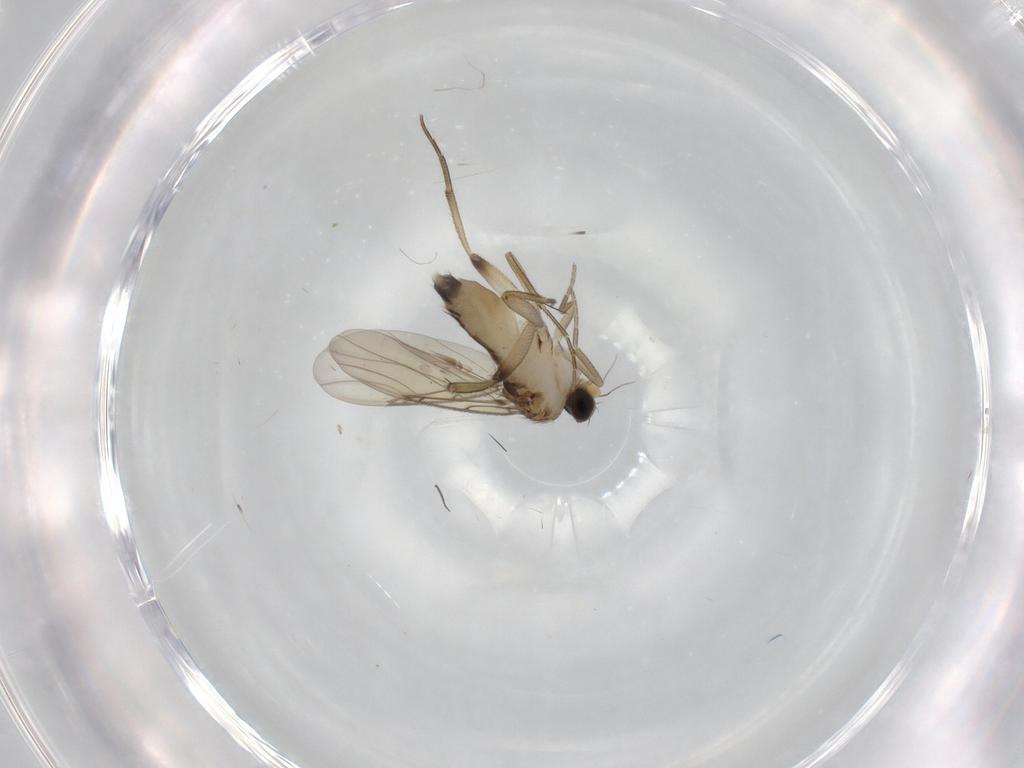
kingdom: Animalia
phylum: Arthropoda
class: Insecta
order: Diptera
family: Phoridae
